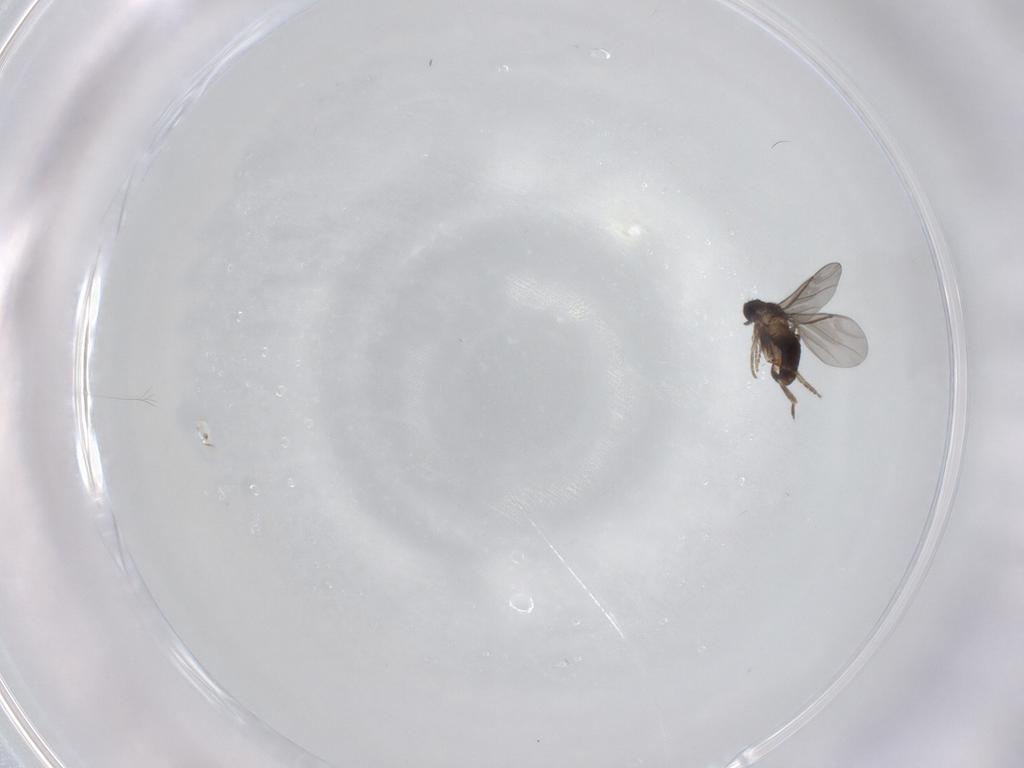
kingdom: Animalia
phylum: Arthropoda
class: Insecta
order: Diptera
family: Phoridae
